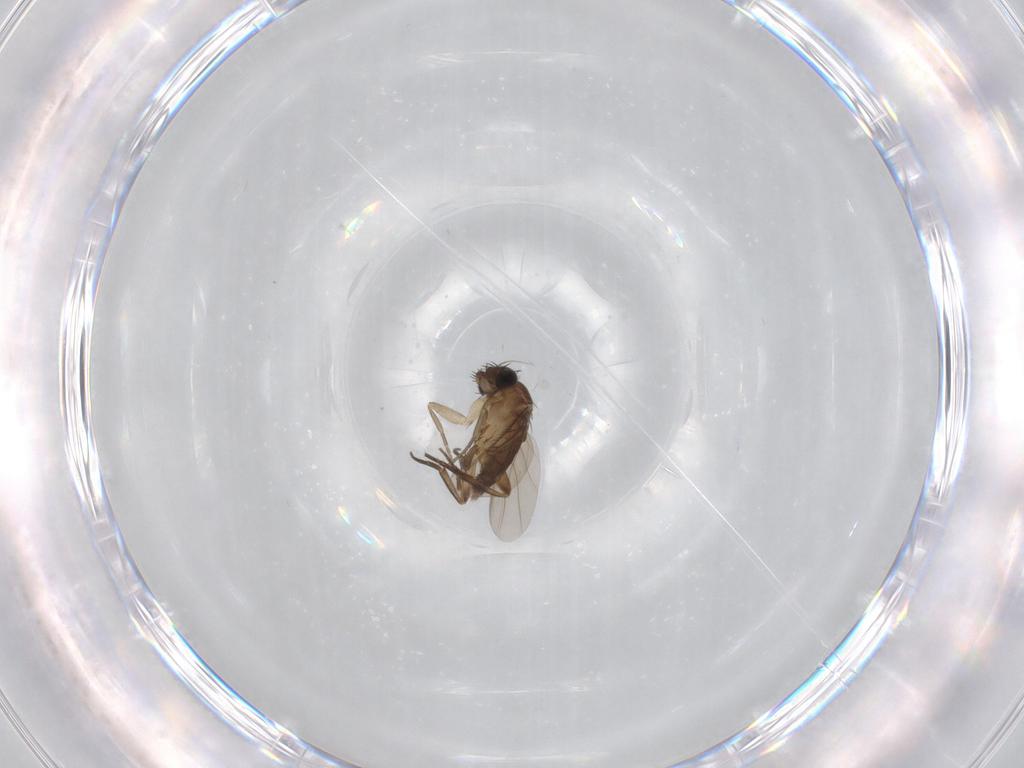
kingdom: Animalia
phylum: Arthropoda
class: Insecta
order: Diptera
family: Phoridae
